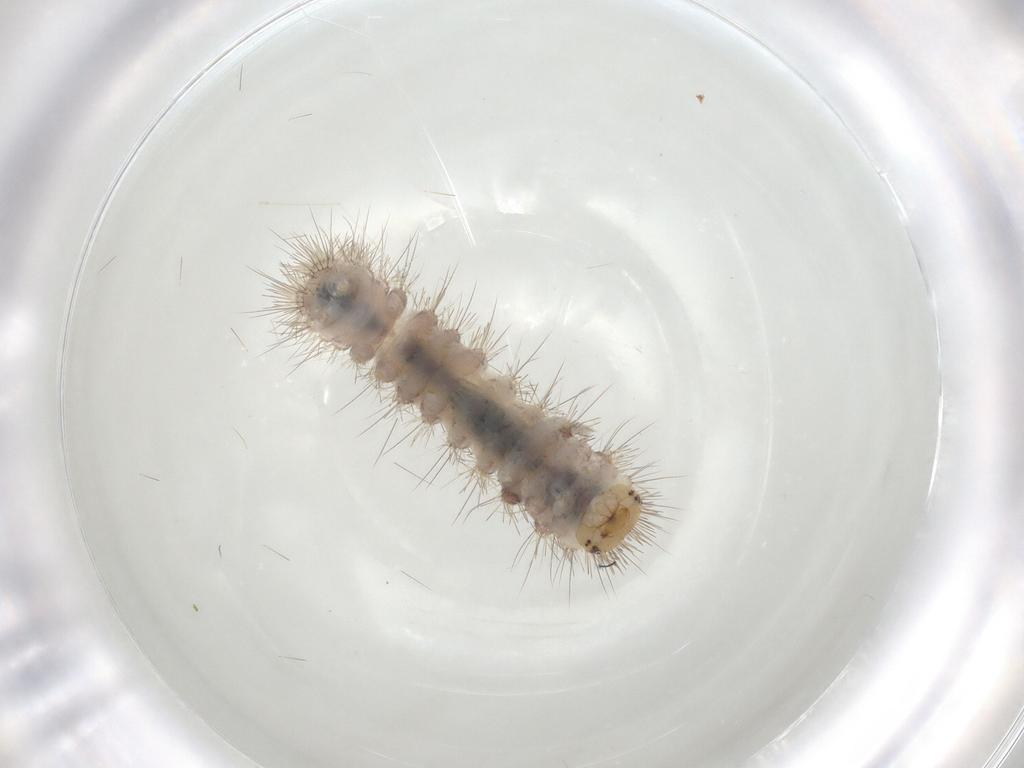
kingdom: Animalia
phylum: Arthropoda
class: Insecta
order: Lepidoptera
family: Erebidae
